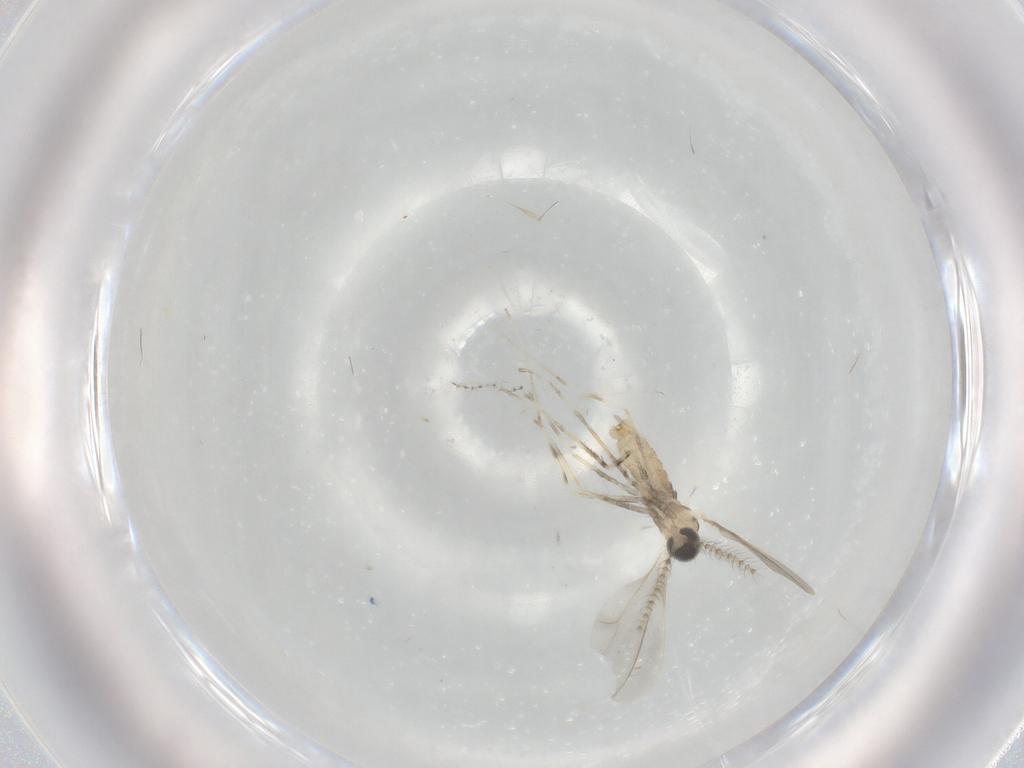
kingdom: Animalia
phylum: Arthropoda
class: Insecta
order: Diptera
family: Cecidomyiidae
